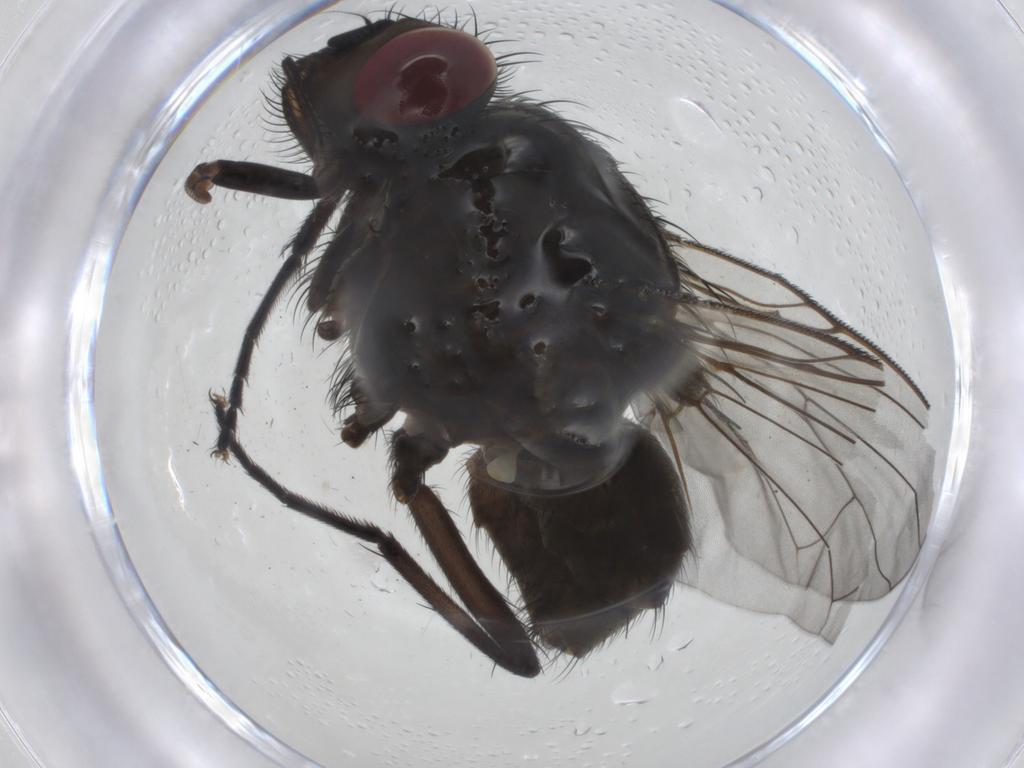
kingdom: Animalia
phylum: Arthropoda
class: Insecta
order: Diptera
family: Muscidae
